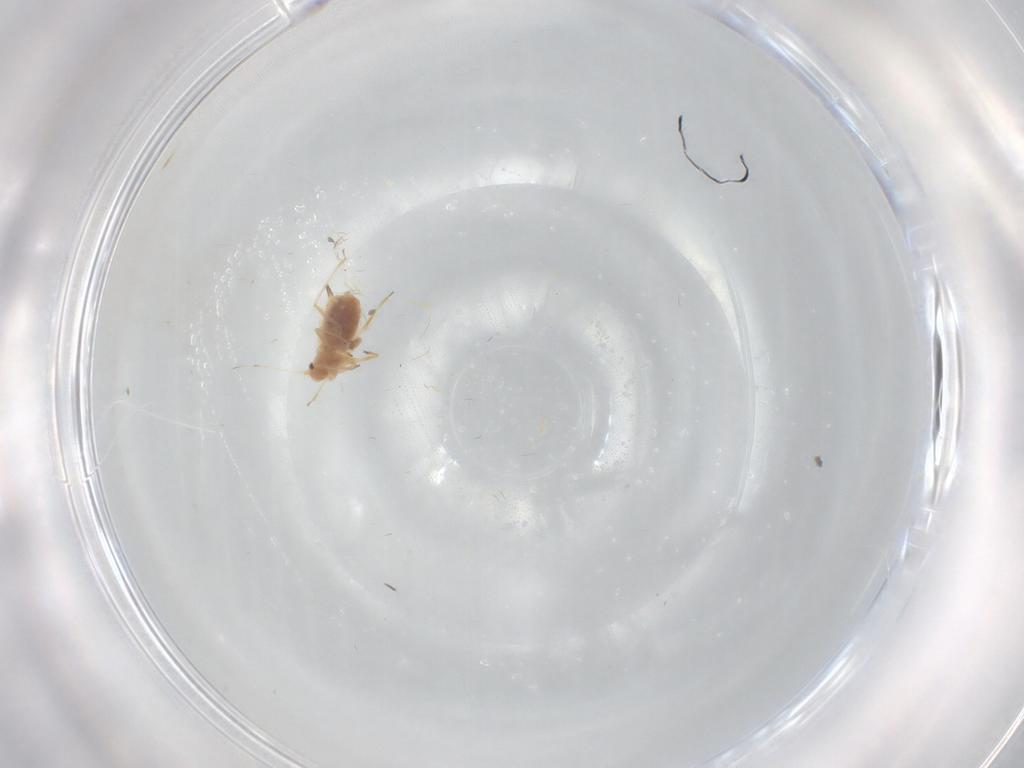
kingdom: Animalia
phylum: Arthropoda
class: Insecta
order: Hemiptera
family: Aphididae
